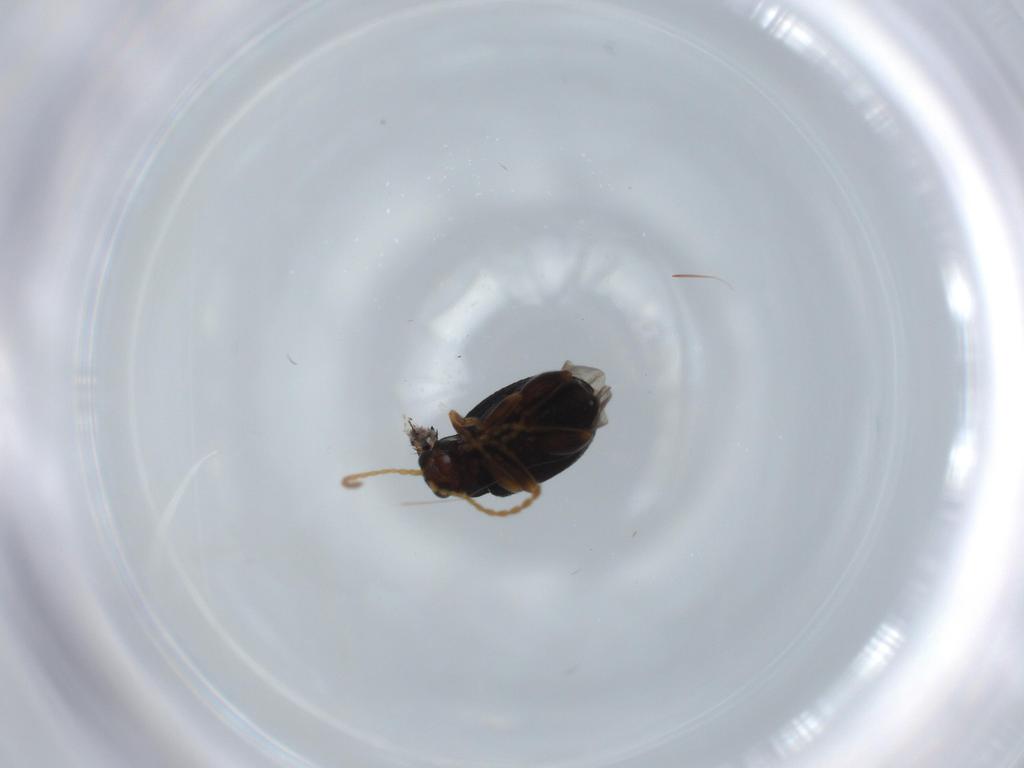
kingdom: Animalia
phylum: Arthropoda
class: Insecta
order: Coleoptera
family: Chrysomelidae
